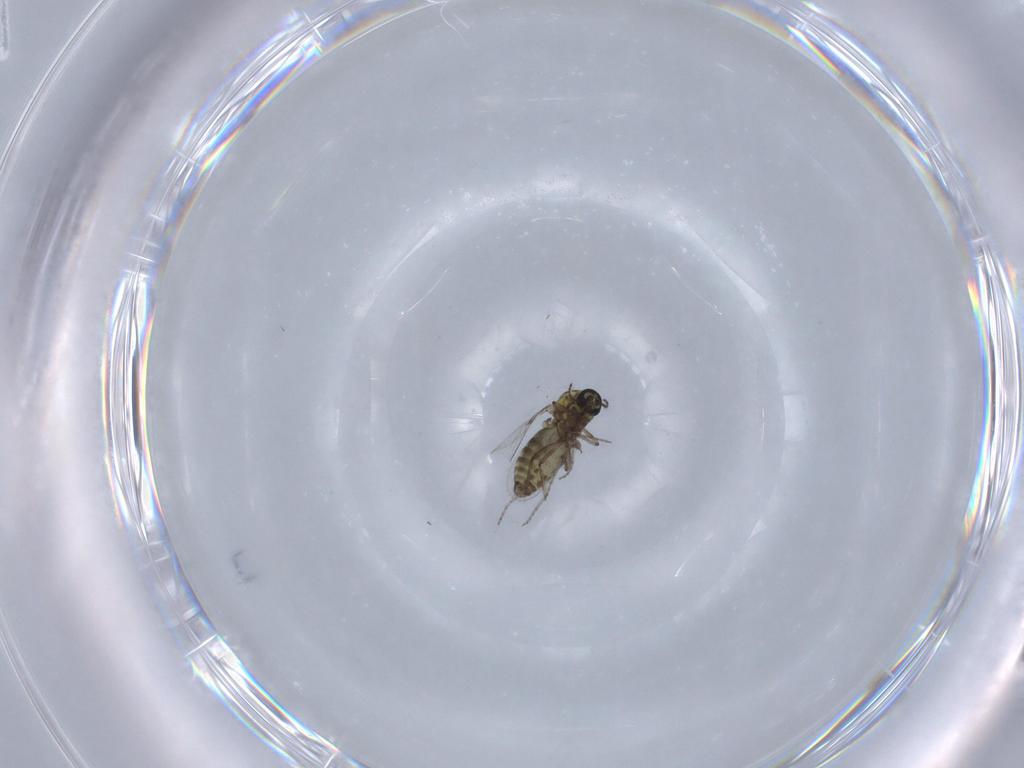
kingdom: Animalia
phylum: Arthropoda
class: Insecta
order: Diptera
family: Ceratopogonidae
